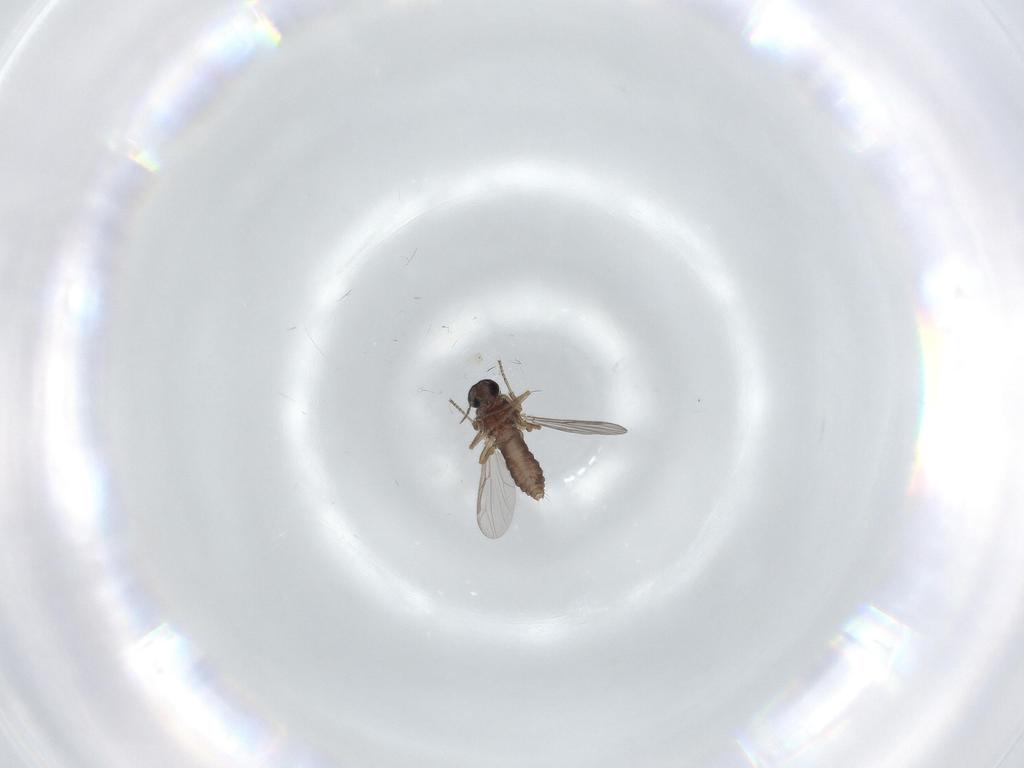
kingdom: Animalia
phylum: Arthropoda
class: Insecta
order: Diptera
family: Ceratopogonidae
